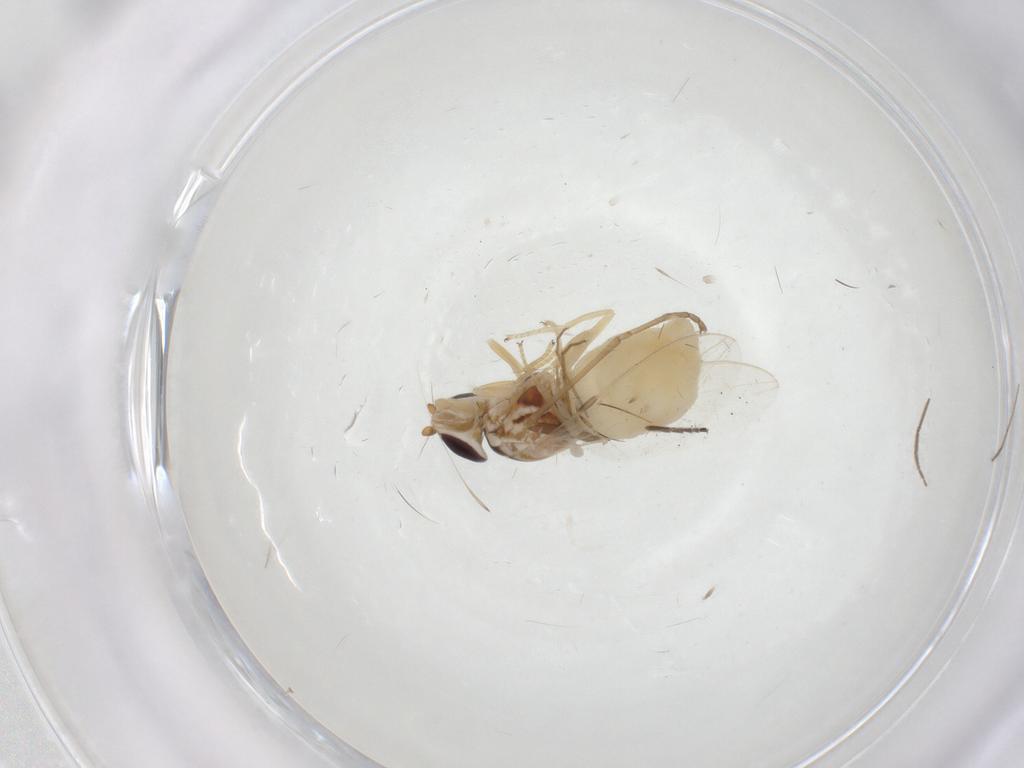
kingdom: Animalia
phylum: Arthropoda
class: Insecta
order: Diptera
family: Chloropidae
